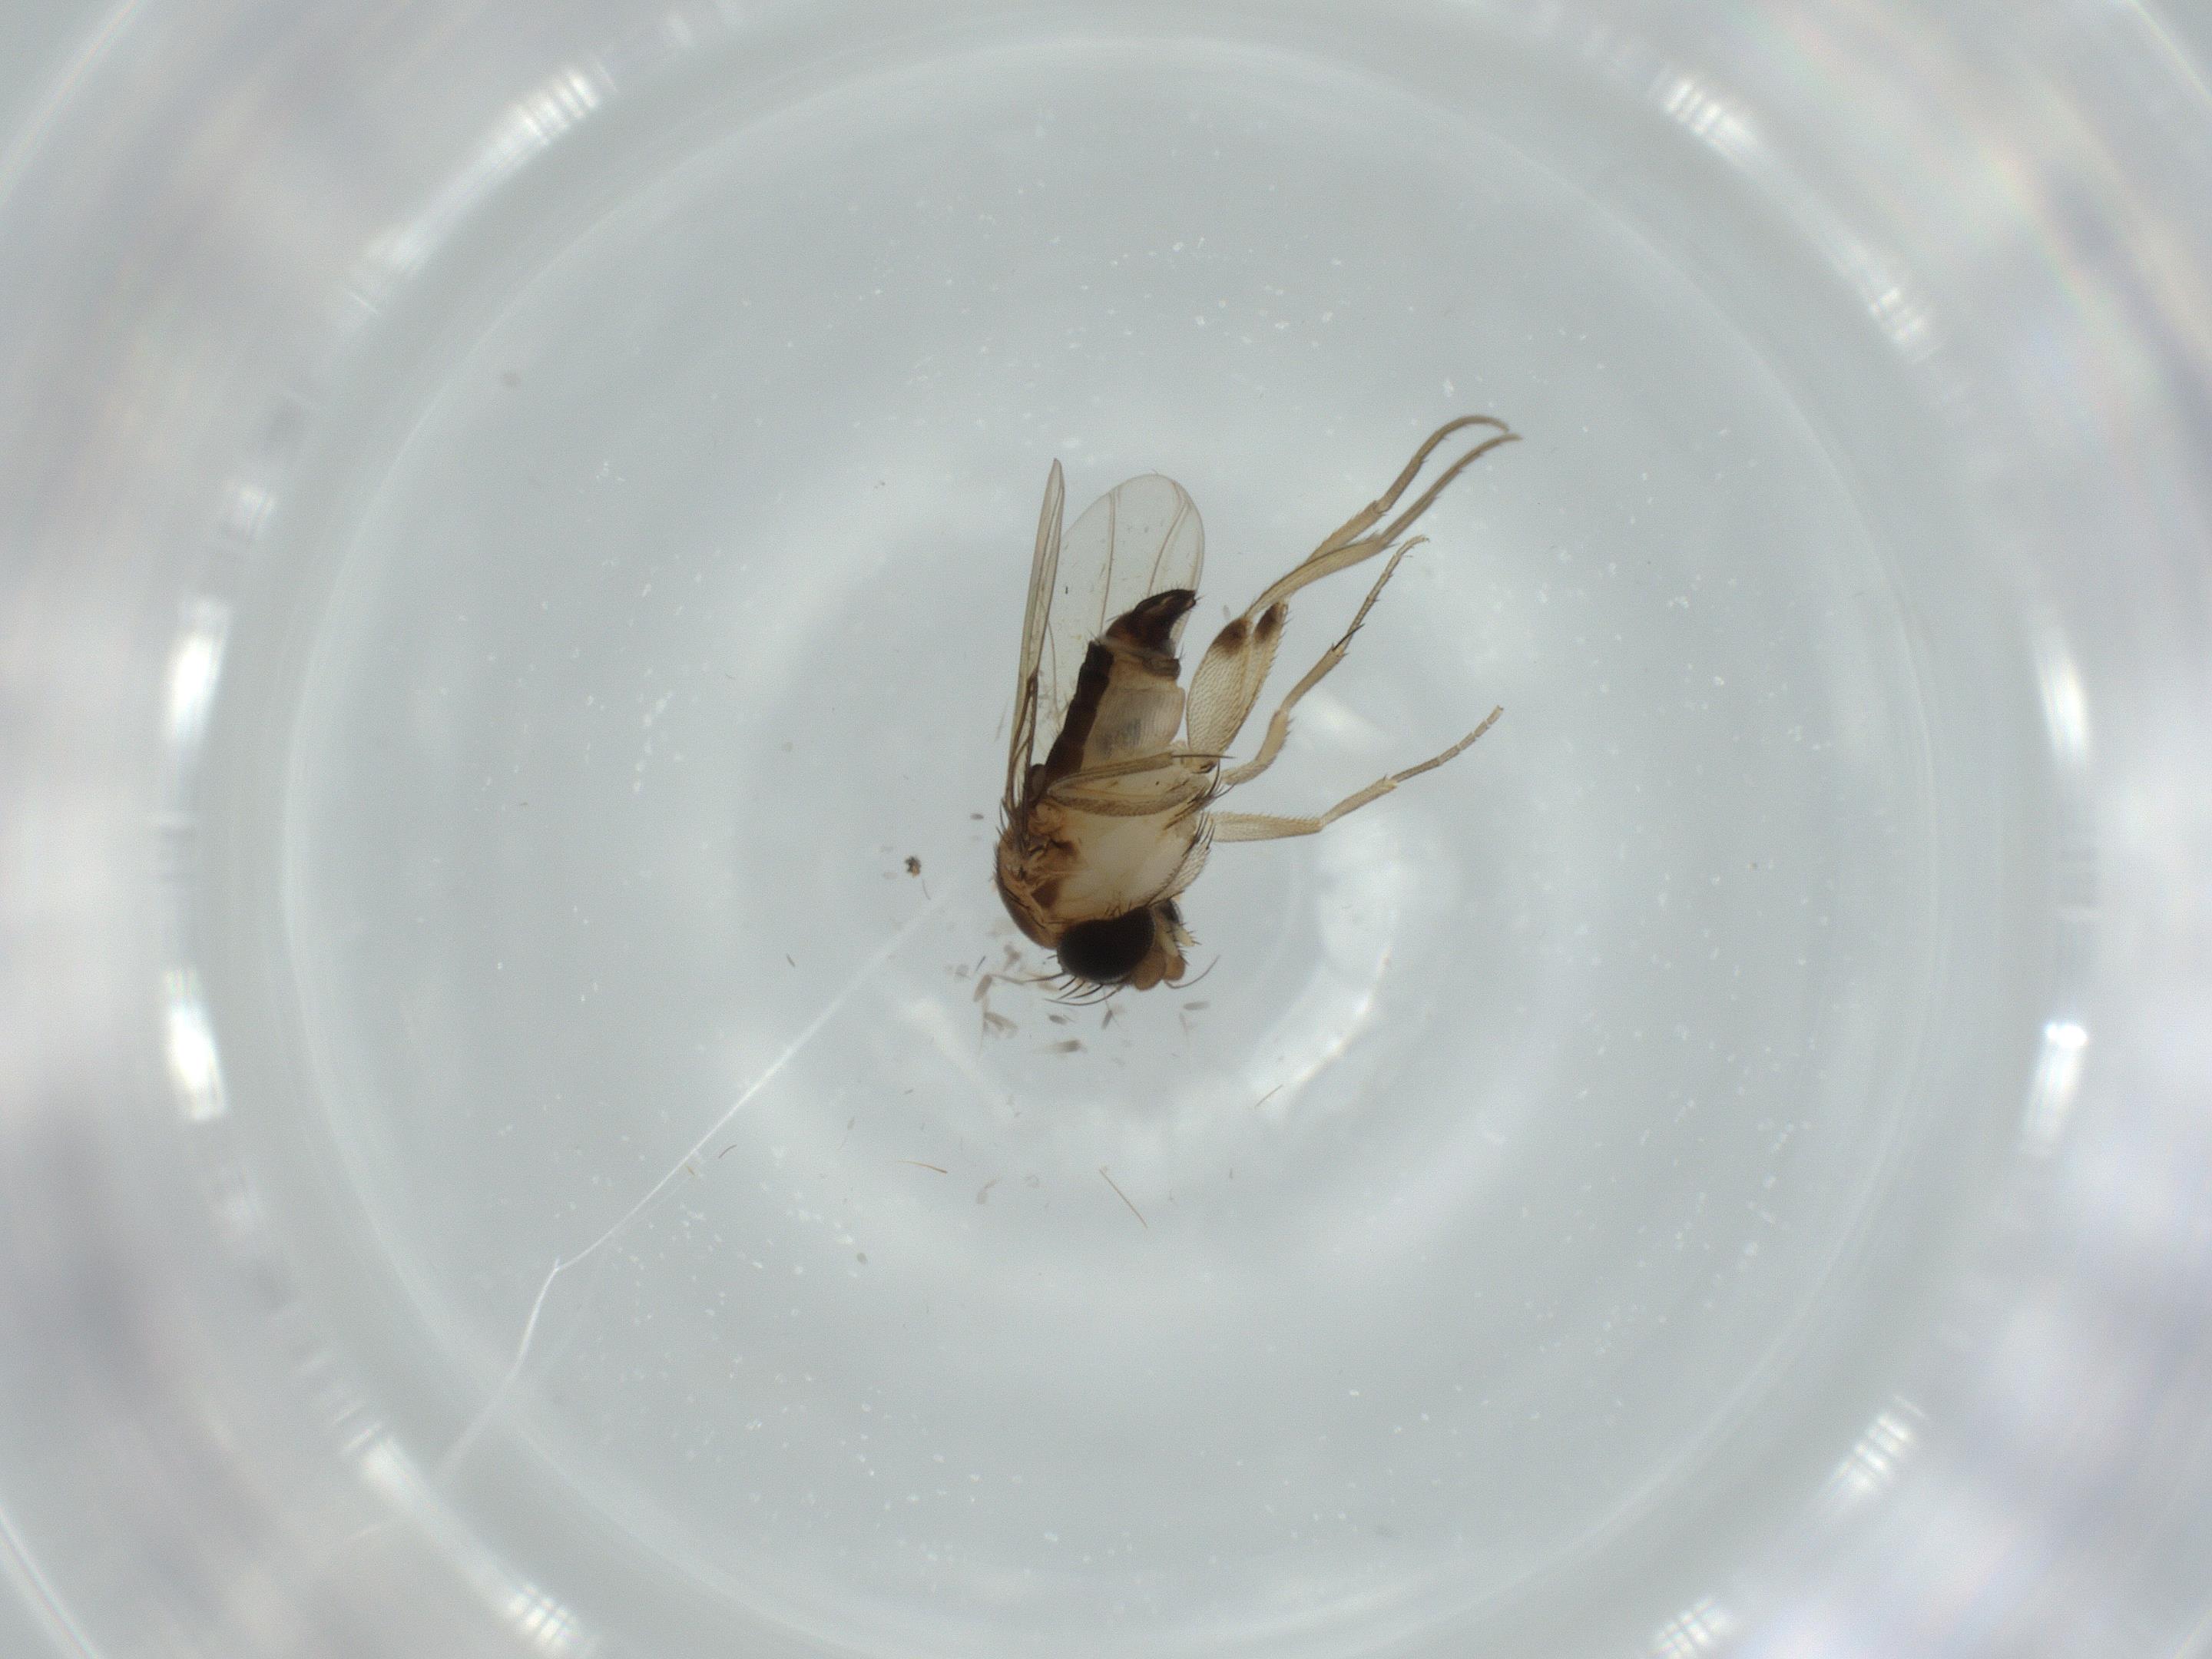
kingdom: Animalia
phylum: Arthropoda
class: Insecta
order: Diptera
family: Phoridae
